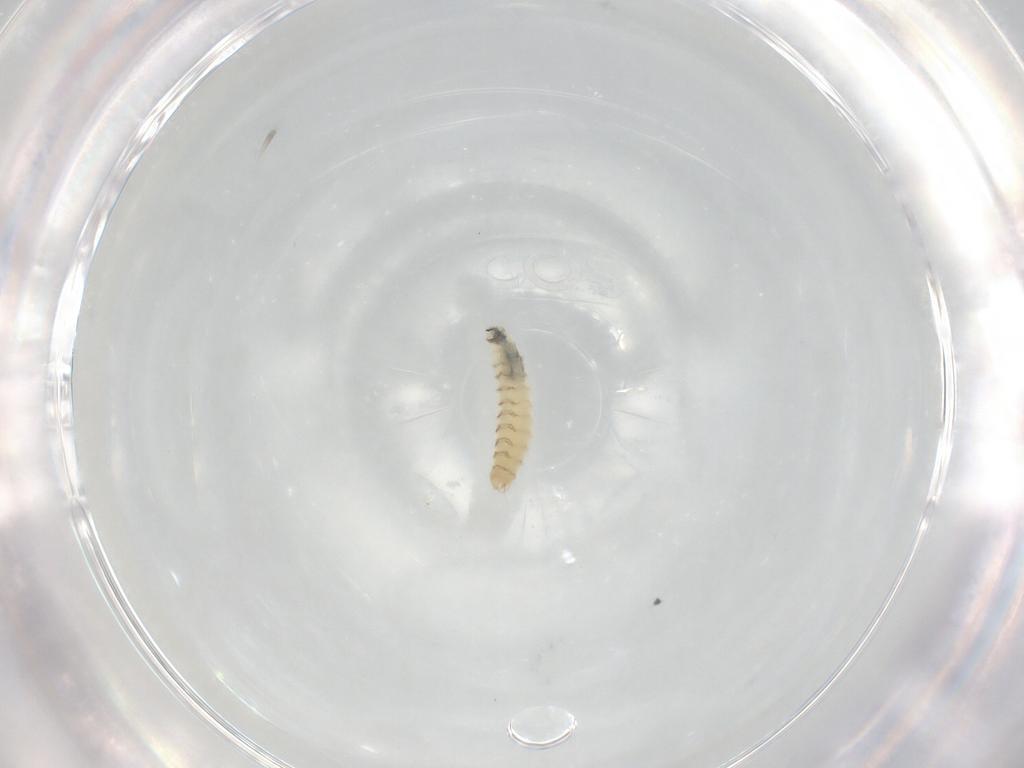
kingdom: Animalia
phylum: Arthropoda
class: Insecta
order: Diptera
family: Sarcophagidae
